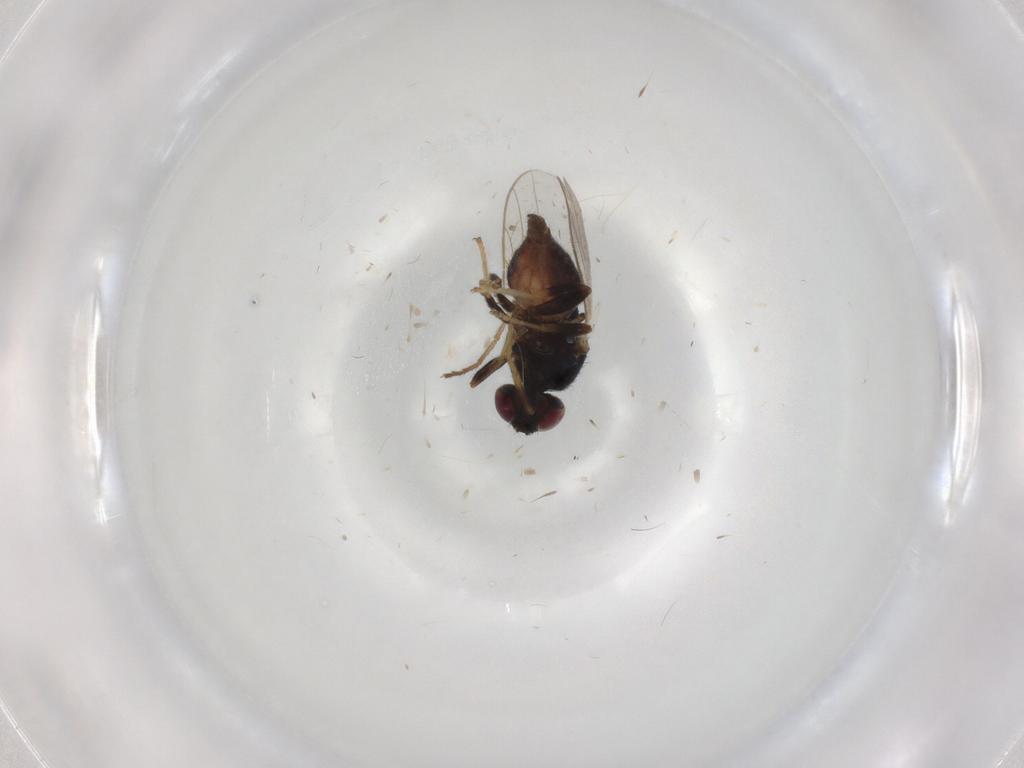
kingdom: Animalia
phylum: Arthropoda
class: Insecta
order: Diptera
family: Chloropidae
